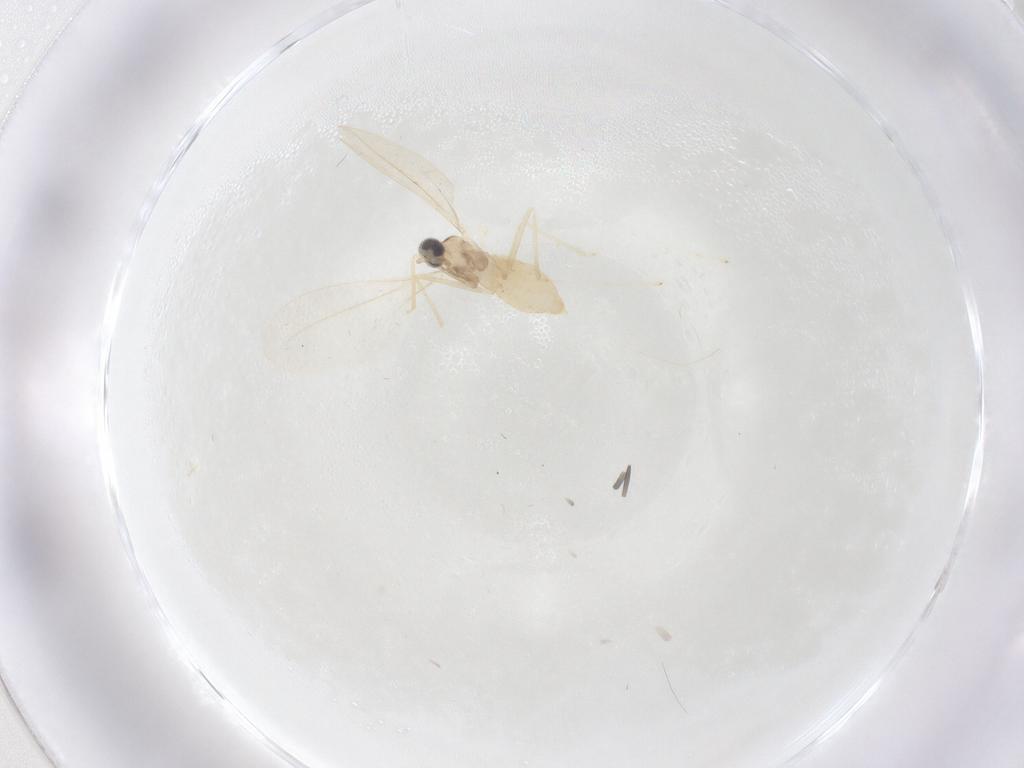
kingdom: Animalia
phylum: Arthropoda
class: Insecta
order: Diptera
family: Cecidomyiidae
